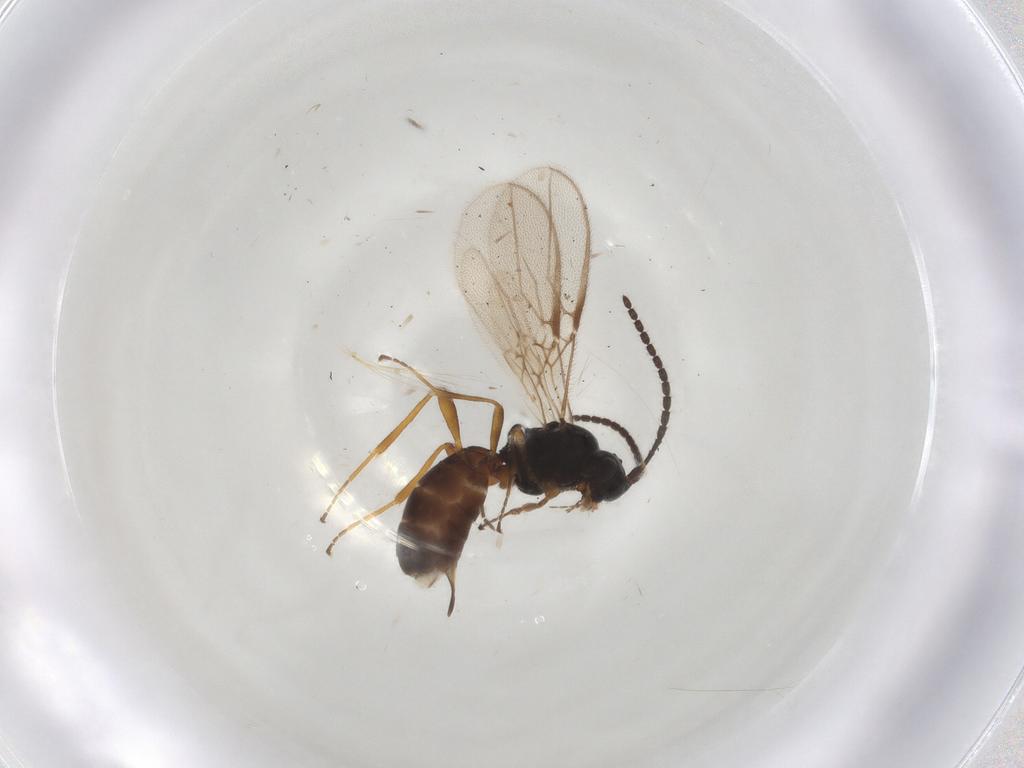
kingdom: Animalia
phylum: Arthropoda
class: Insecta
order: Hymenoptera
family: Braconidae
